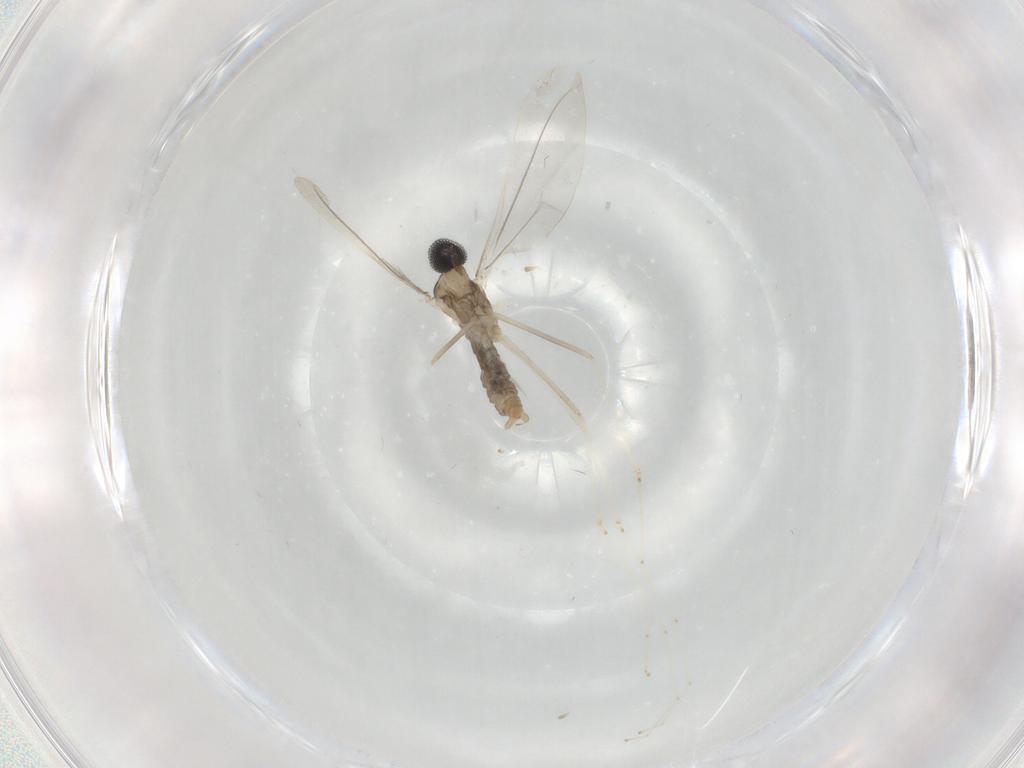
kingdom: Animalia
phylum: Arthropoda
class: Insecta
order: Diptera
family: Cecidomyiidae
